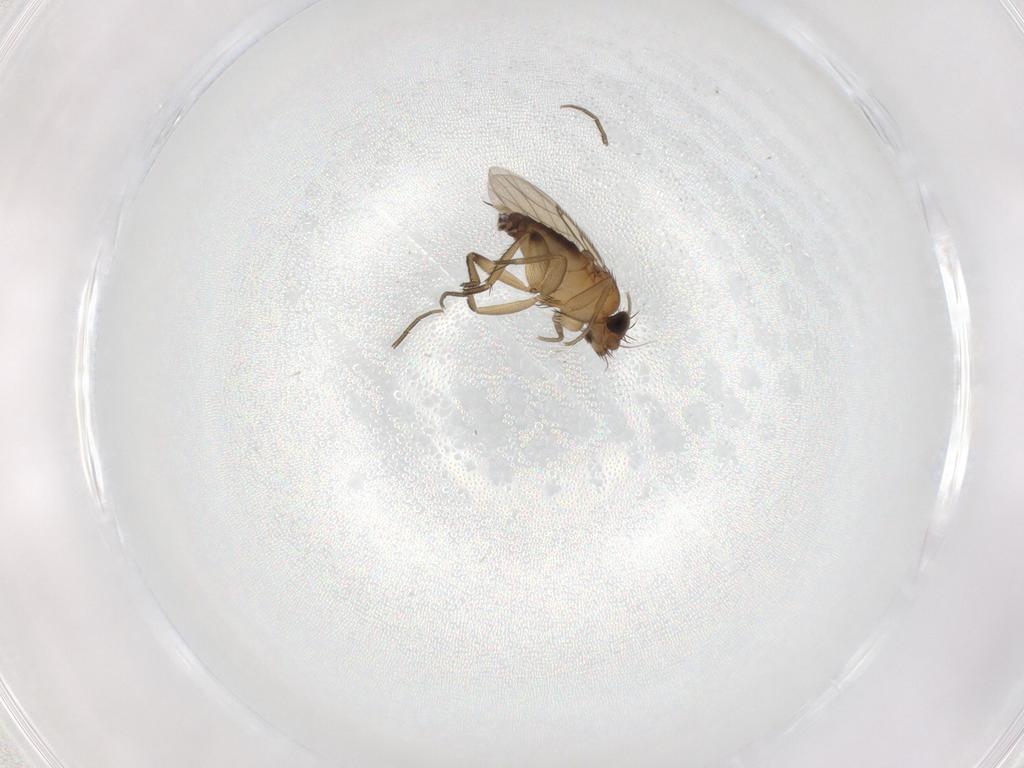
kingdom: Animalia
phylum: Arthropoda
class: Insecta
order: Diptera
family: Phoridae
